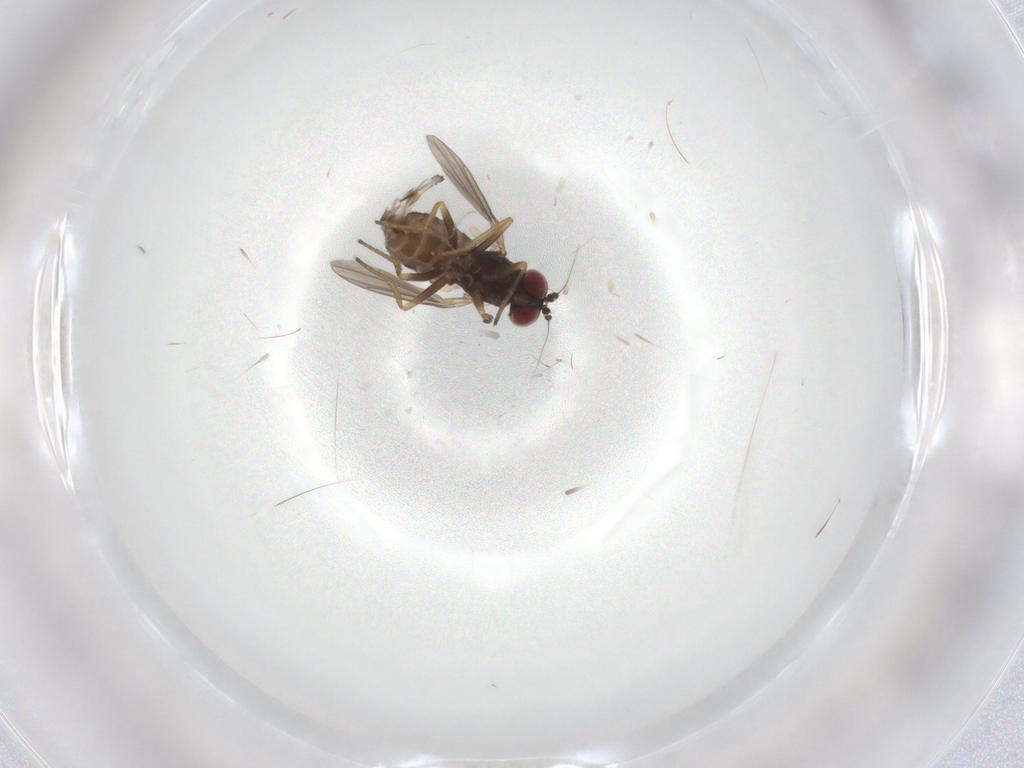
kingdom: Animalia
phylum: Arthropoda
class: Insecta
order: Diptera
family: Dolichopodidae
